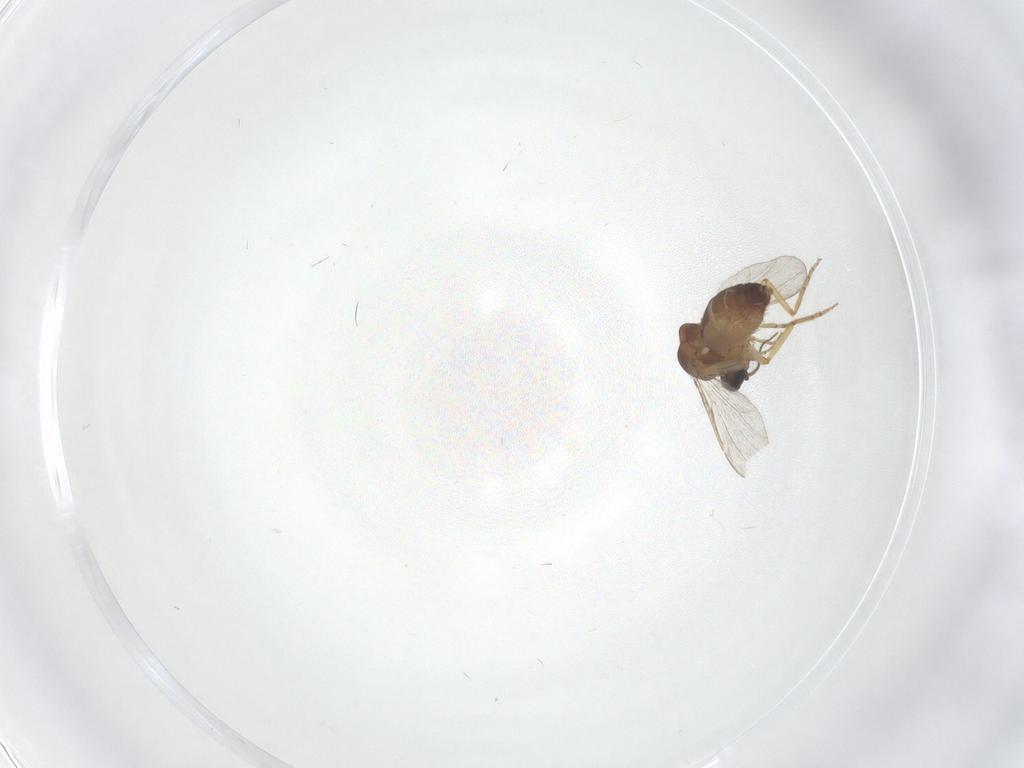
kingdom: Animalia
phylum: Arthropoda
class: Insecta
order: Diptera
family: Ceratopogonidae
